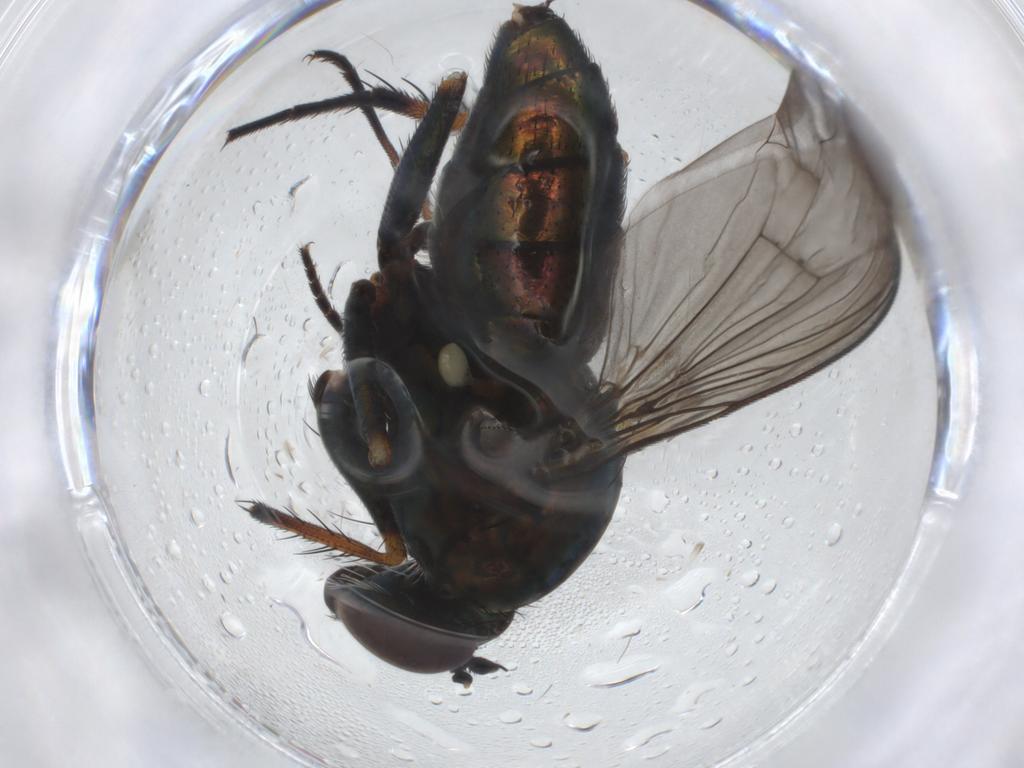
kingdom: Animalia
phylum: Arthropoda
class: Insecta
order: Diptera
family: Dolichopodidae
